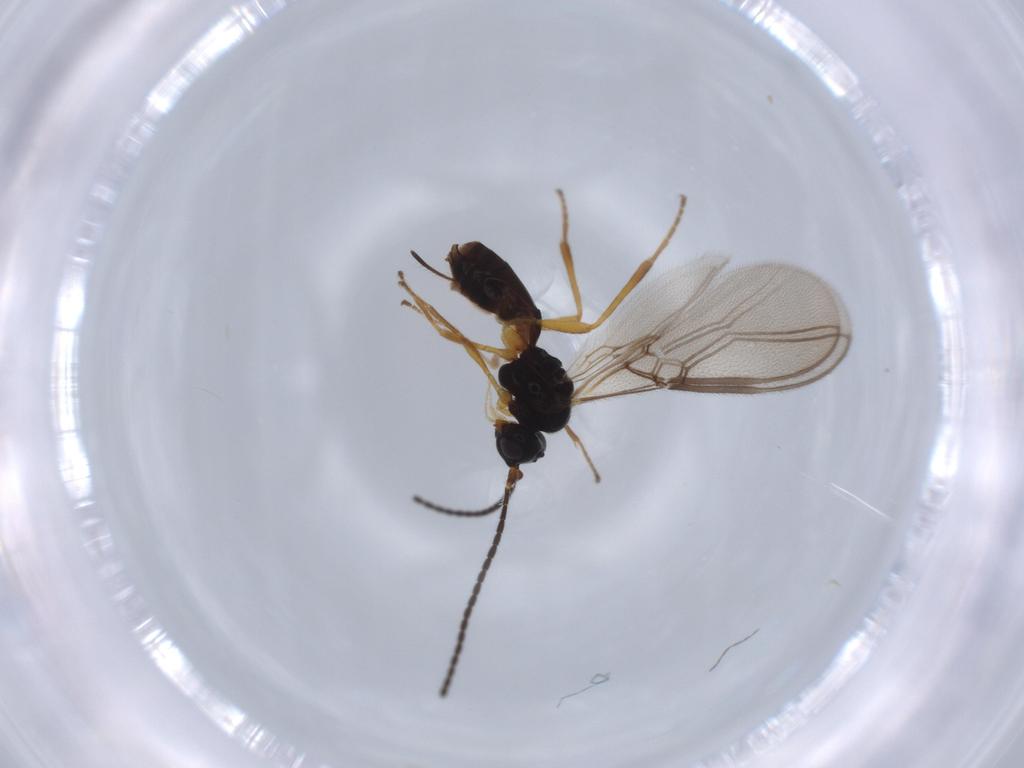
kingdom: Animalia
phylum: Arthropoda
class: Insecta
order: Hymenoptera
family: Braconidae
